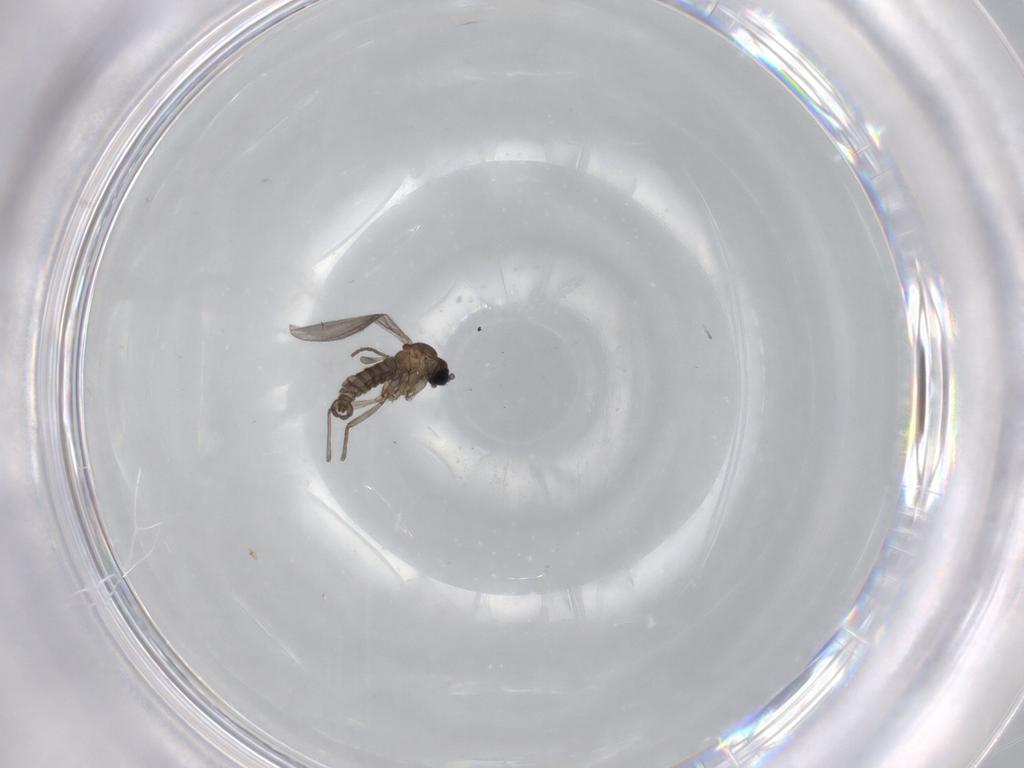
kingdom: Animalia
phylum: Arthropoda
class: Insecta
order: Diptera
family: Sciaridae
